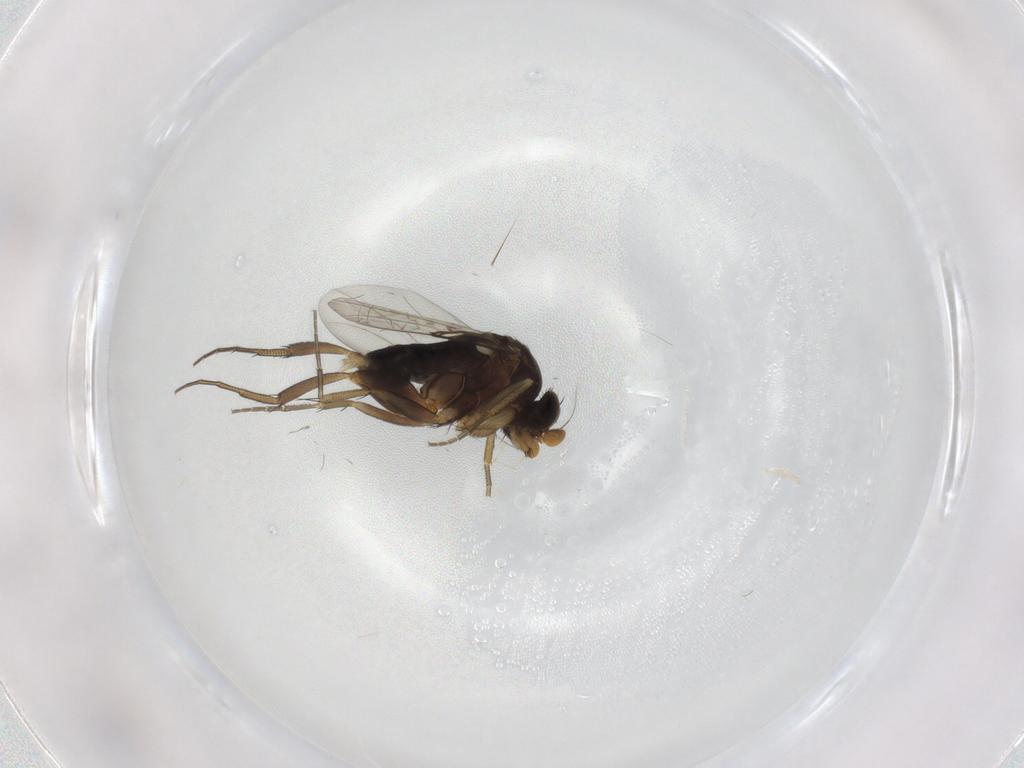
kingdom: Animalia
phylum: Arthropoda
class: Insecta
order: Diptera
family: Phoridae
